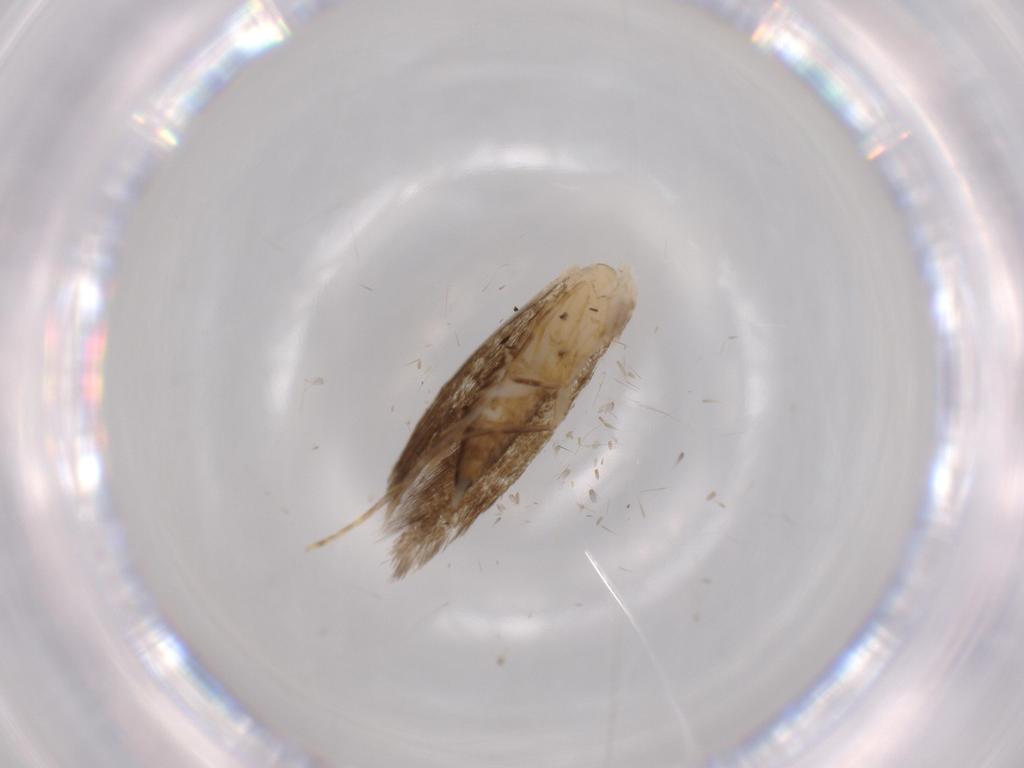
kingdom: Animalia
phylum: Arthropoda
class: Insecta
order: Lepidoptera
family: Tineidae
